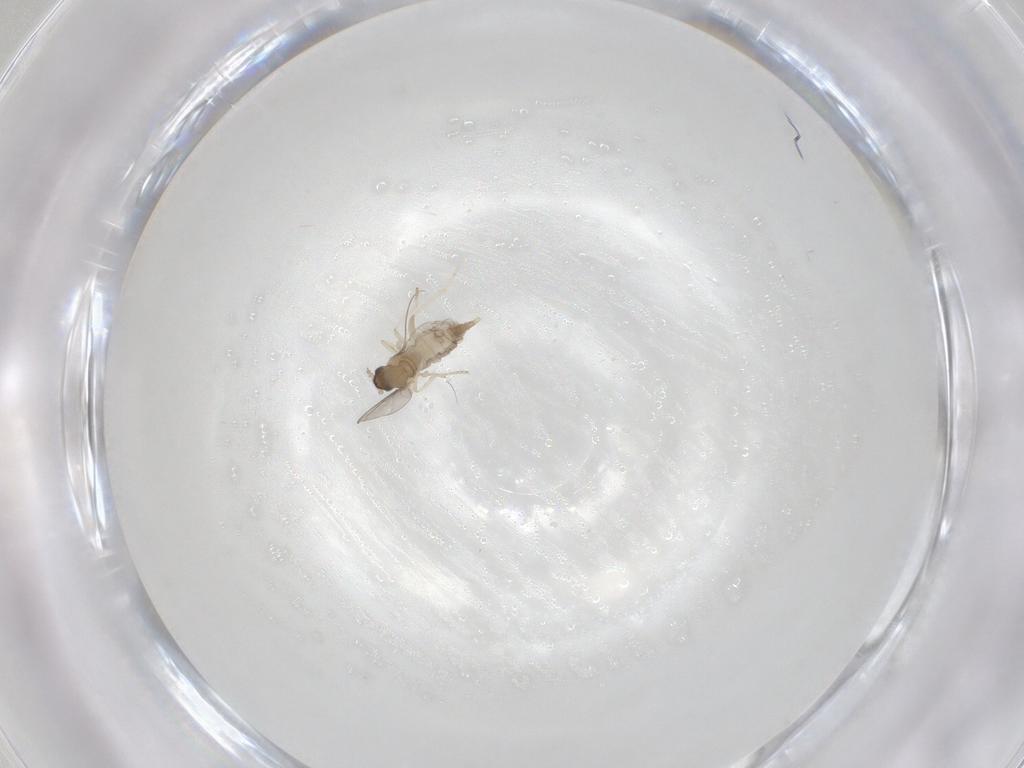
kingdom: Animalia
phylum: Arthropoda
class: Insecta
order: Diptera
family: Cecidomyiidae
